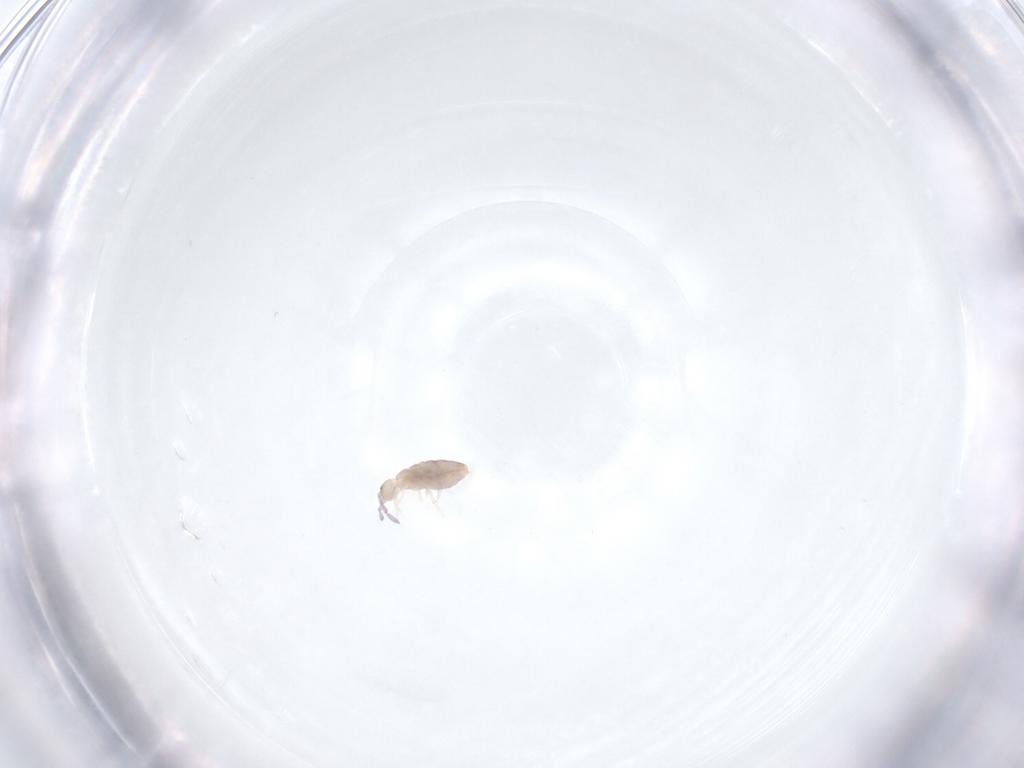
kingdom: Animalia
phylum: Arthropoda
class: Collembola
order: Entomobryomorpha
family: Entomobryidae
